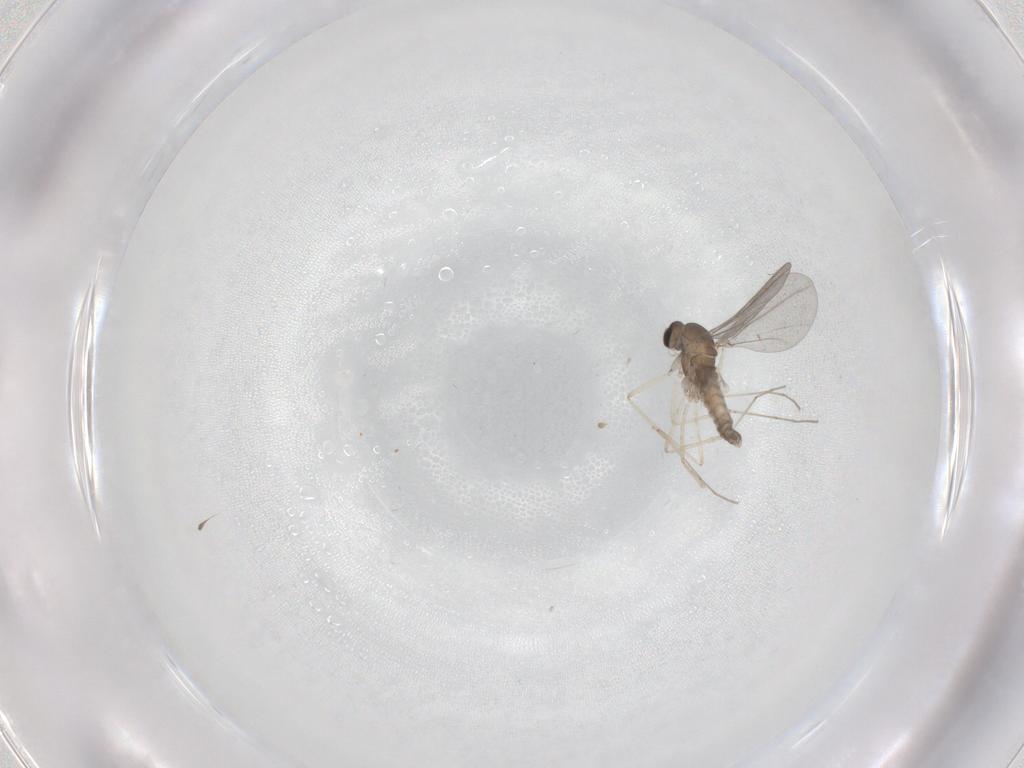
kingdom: Animalia
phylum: Arthropoda
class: Insecta
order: Diptera
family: Cecidomyiidae
